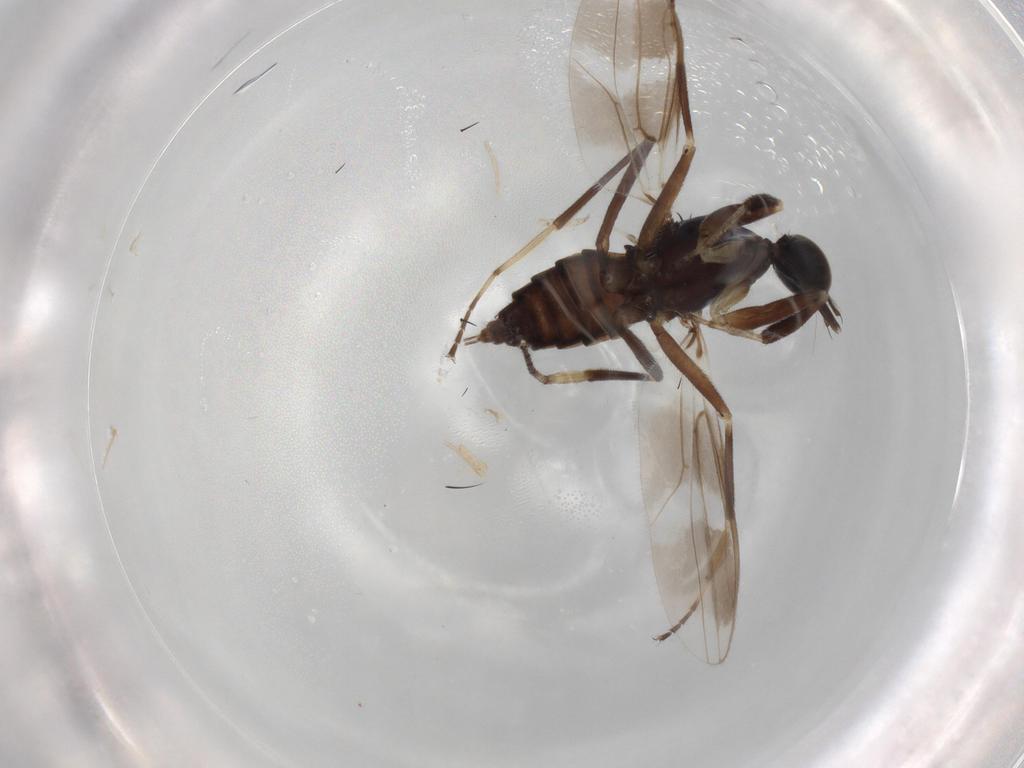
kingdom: Animalia
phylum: Arthropoda
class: Insecta
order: Diptera
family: Hybotidae
